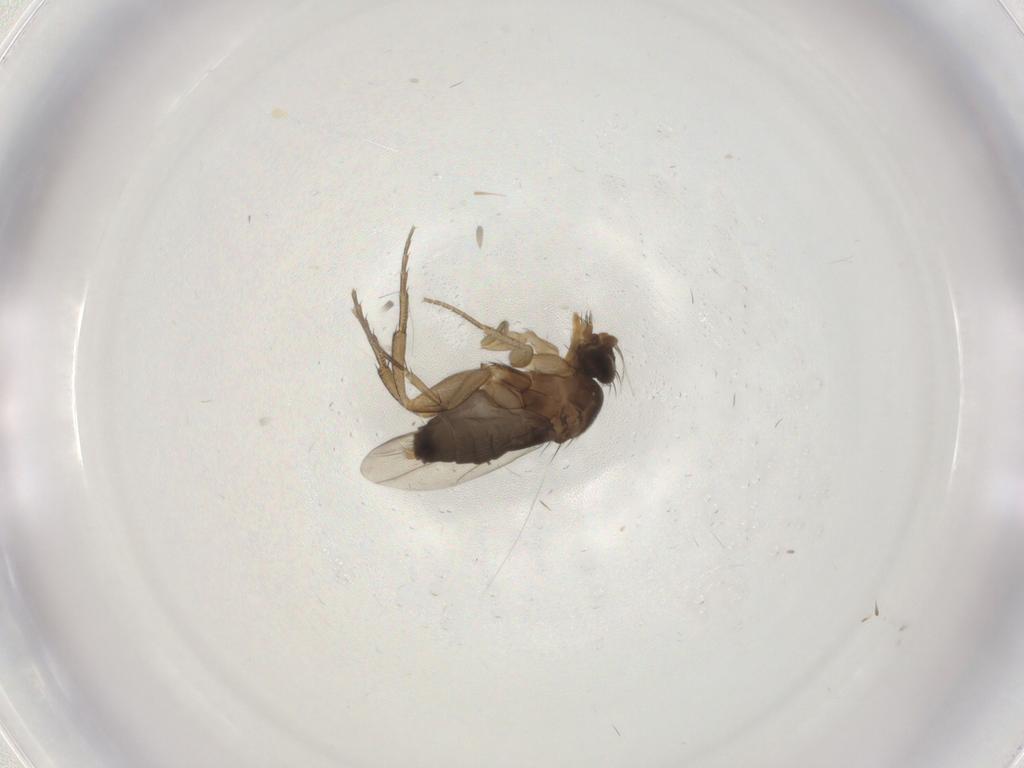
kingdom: Animalia
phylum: Arthropoda
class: Insecta
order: Diptera
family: Phoridae
